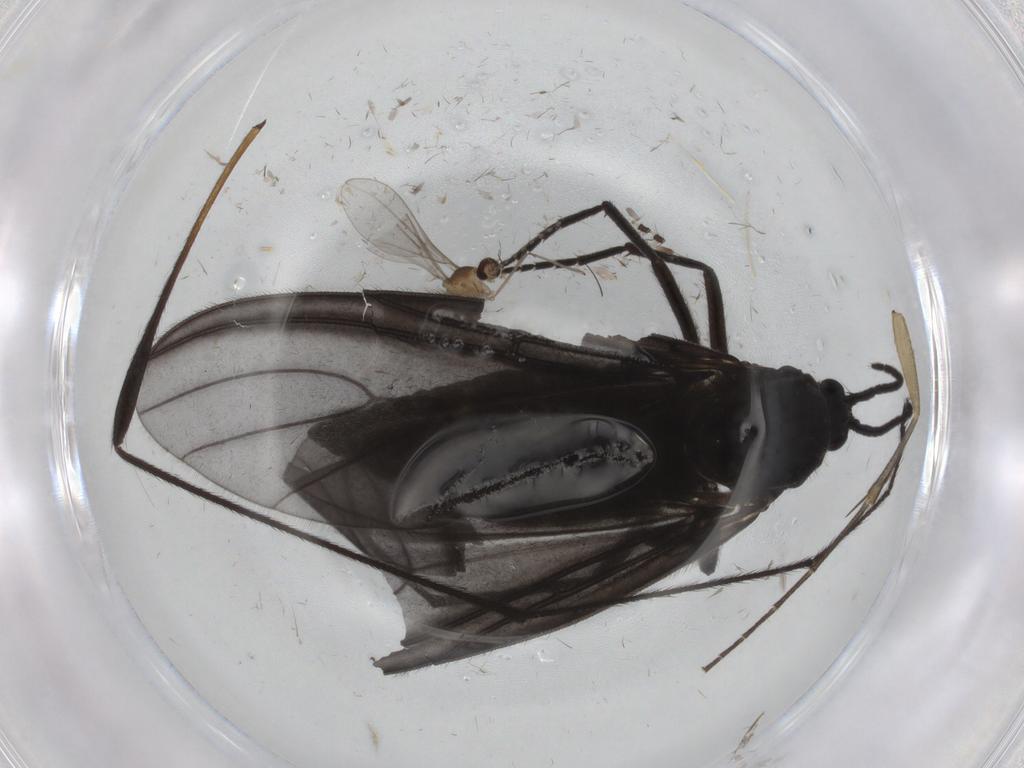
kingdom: Animalia
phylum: Arthropoda
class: Insecta
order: Diptera
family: Limoniidae
